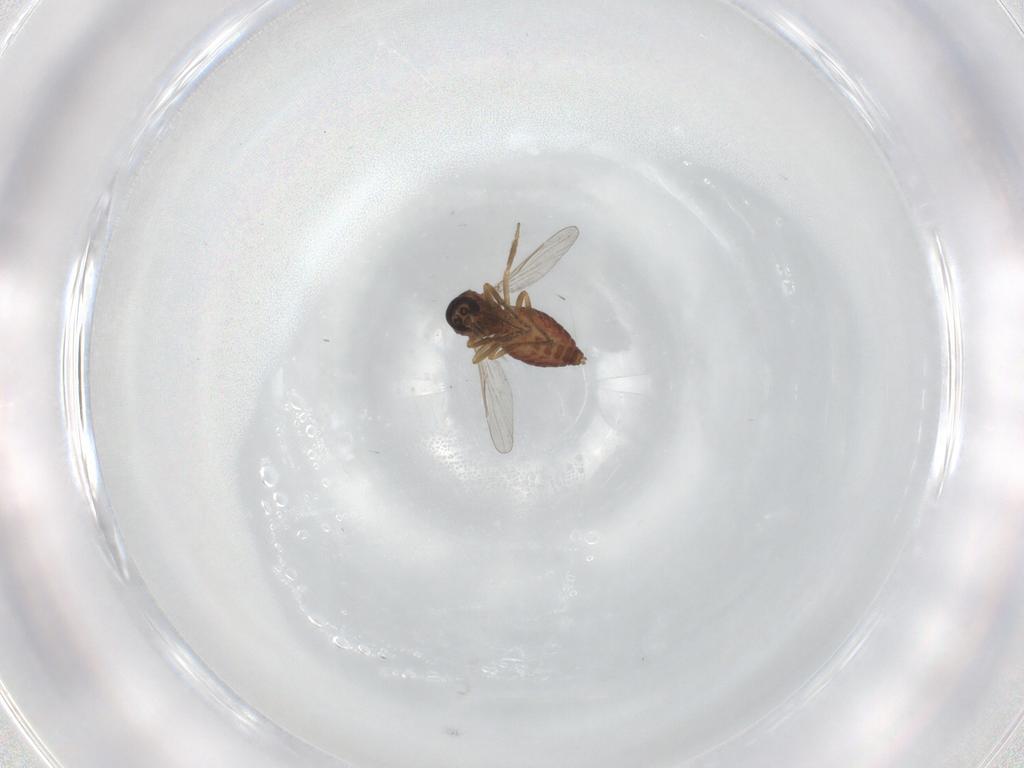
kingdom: Animalia
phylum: Arthropoda
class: Insecta
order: Diptera
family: Ceratopogonidae
